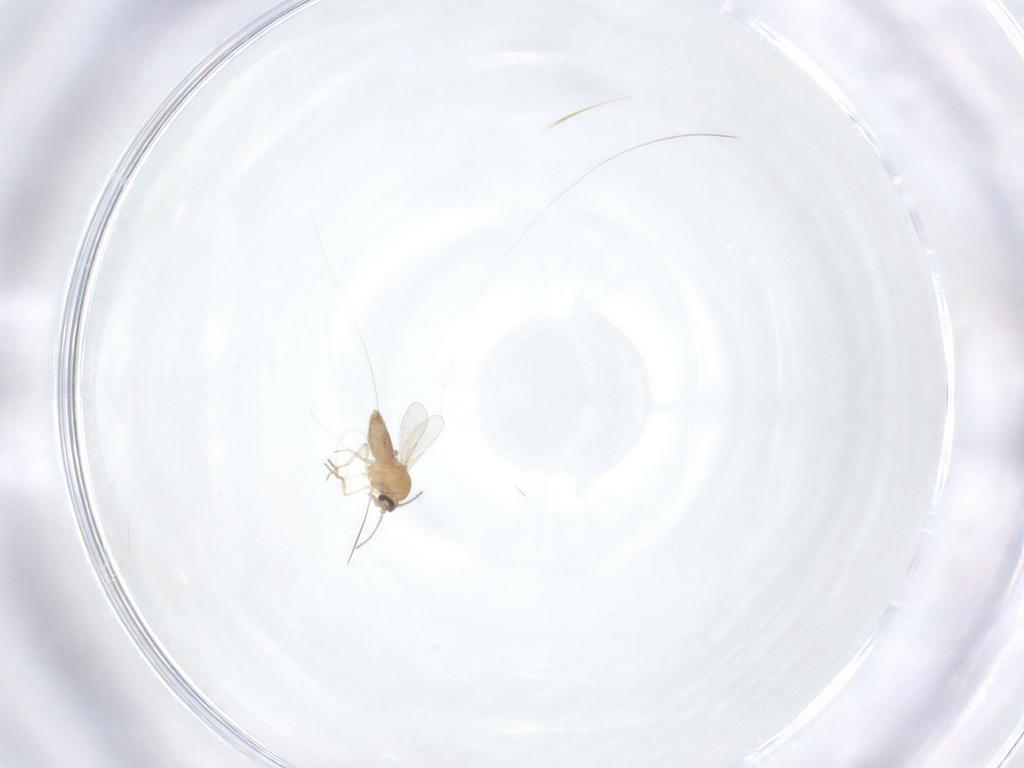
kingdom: Animalia
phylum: Arthropoda
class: Insecta
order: Diptera
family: Ceratopogonidae
